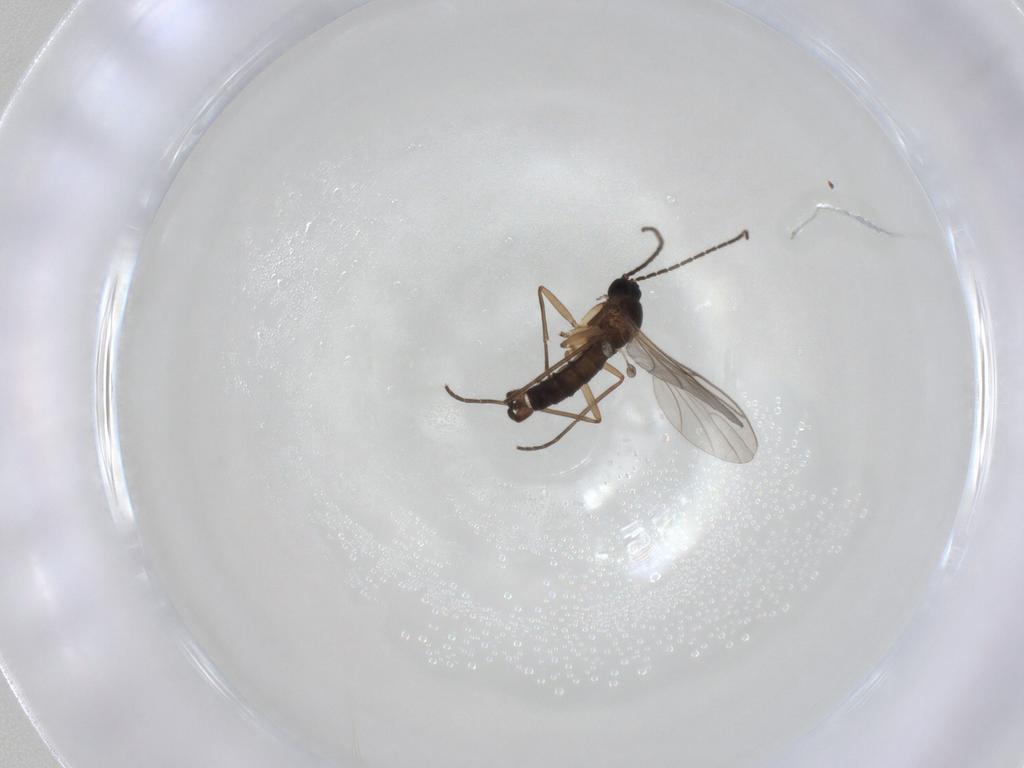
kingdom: Animalia
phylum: Arthropoda
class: Insecta
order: Diptera
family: Sciaridae
